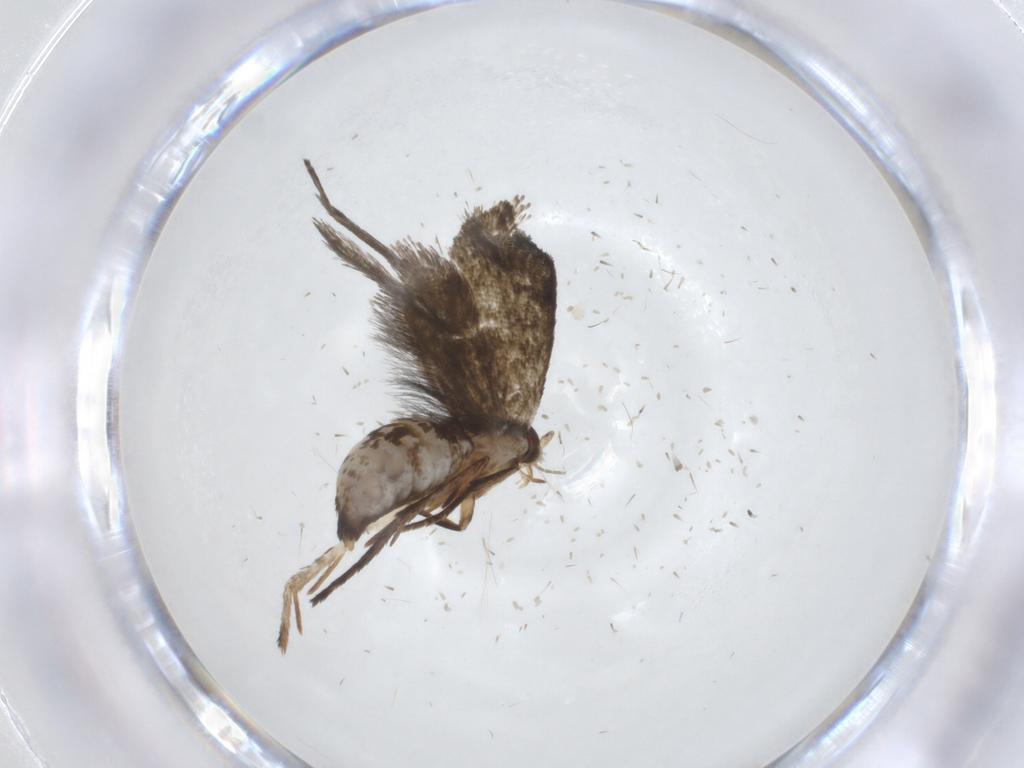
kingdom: Animalia
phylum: Arthropoda
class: Insecta
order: Lepidoptera
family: Tineidae
